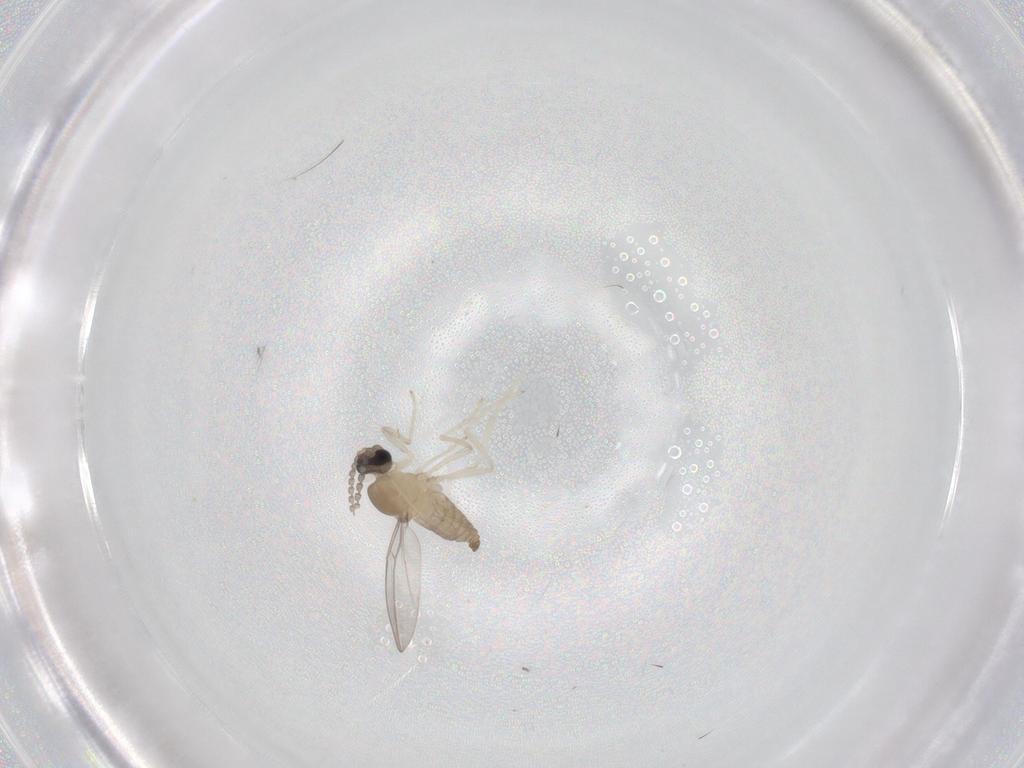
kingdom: Animalia
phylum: Arthropoda
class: Insecta
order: Diptera
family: Cecidomyiidae
